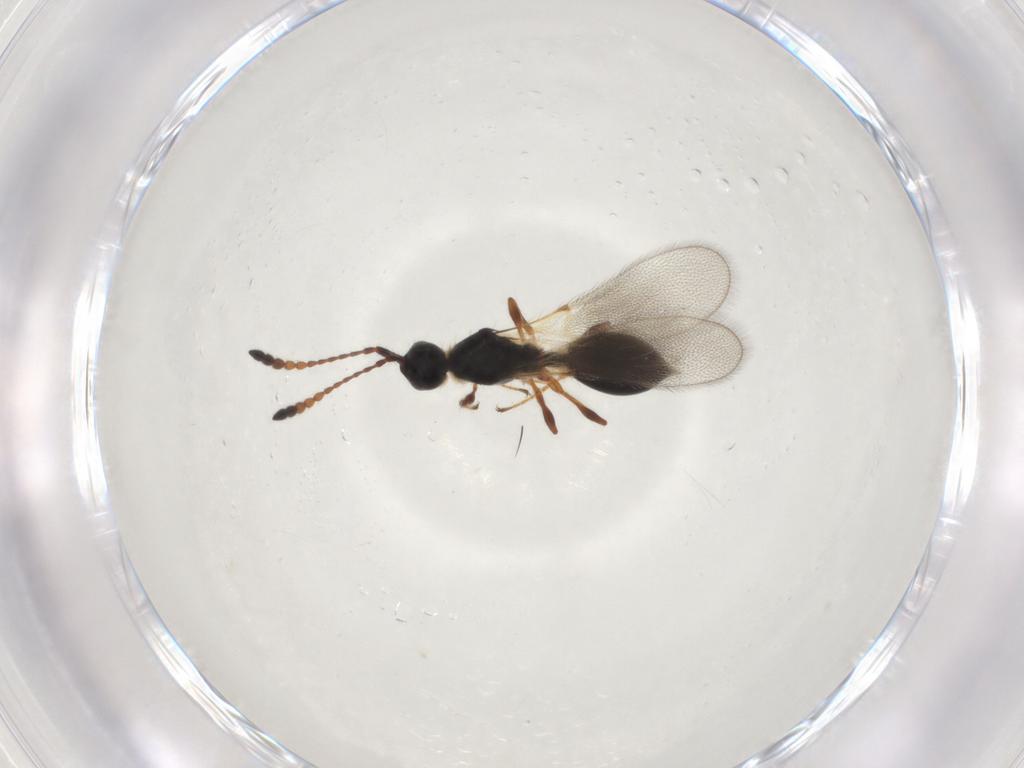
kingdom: Animalia
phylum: Arthropoda
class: Insecta
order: Hymenoptera
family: Diapriidae
